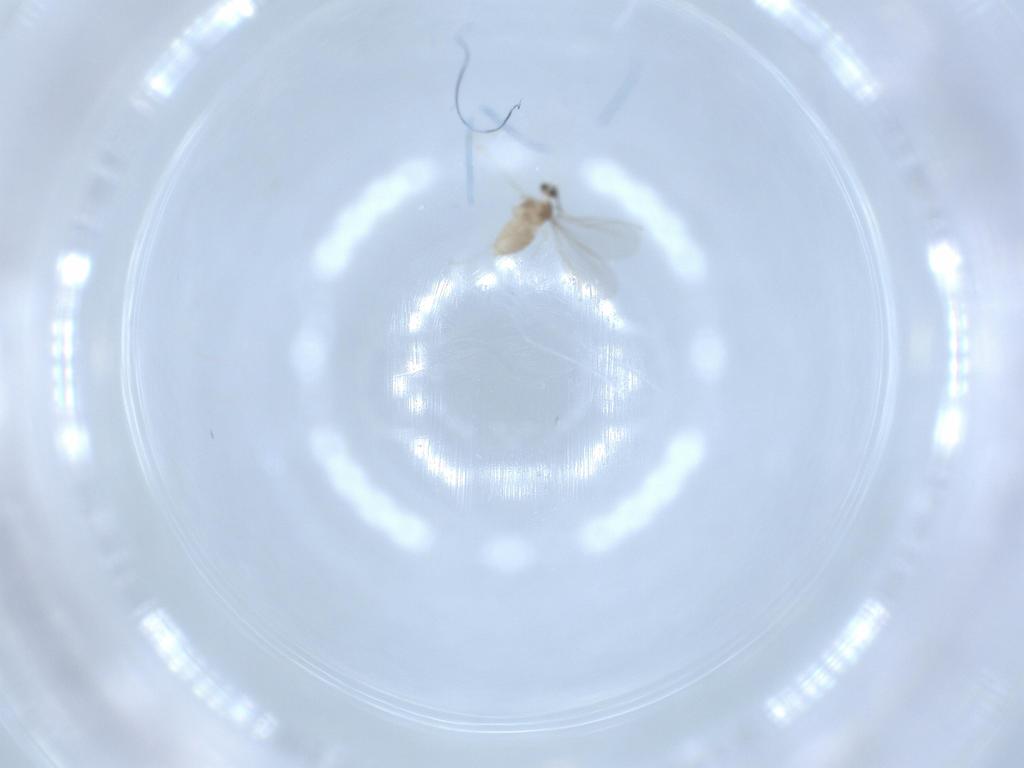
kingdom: Animalia
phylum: Arthropoda
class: Insecta
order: Diptera
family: Cecidomyiidae
